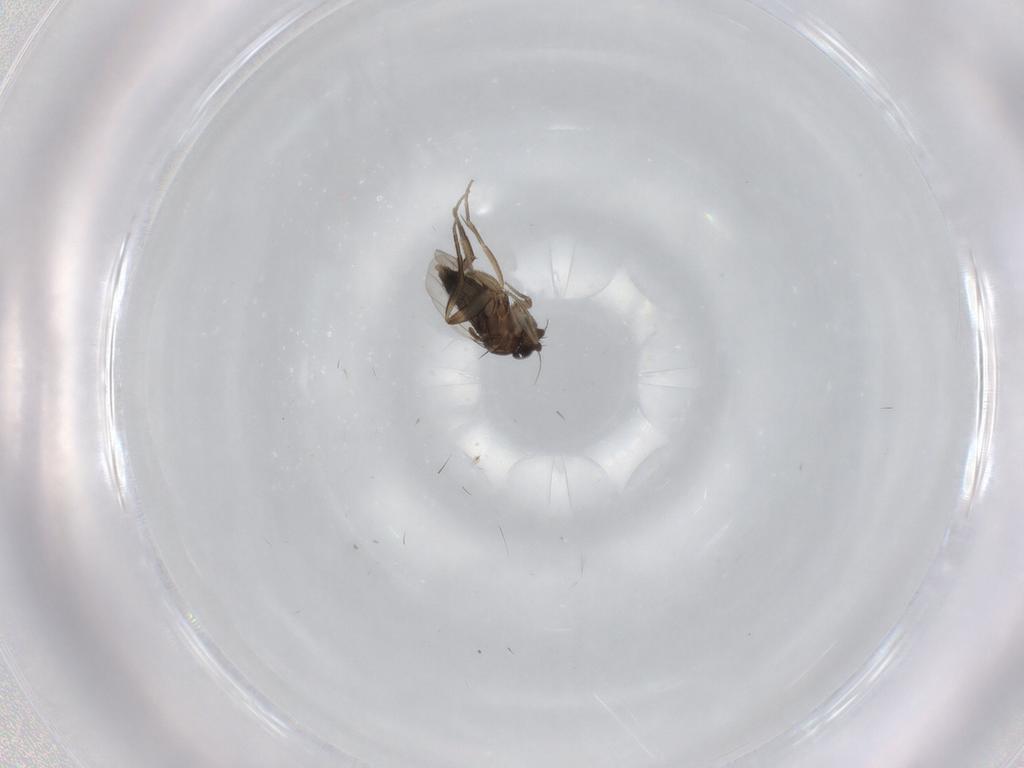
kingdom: Animalia
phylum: Arthropoda
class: Insecta
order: Diptera
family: Phoridae
